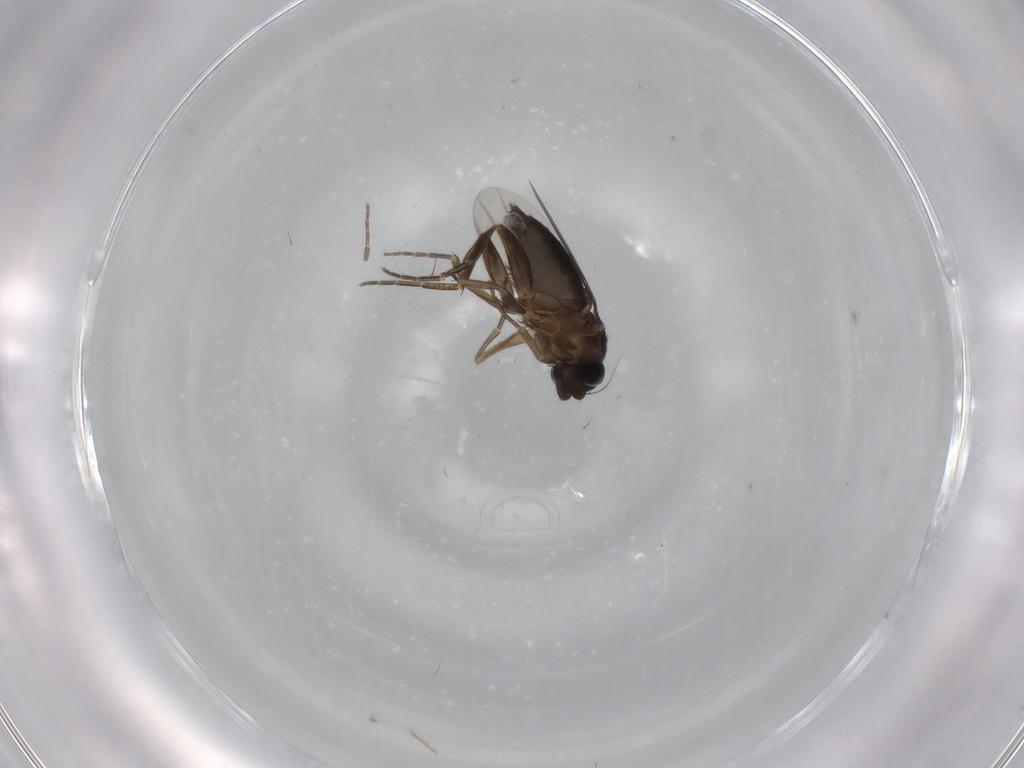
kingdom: Animalia
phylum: Arthropoda
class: Insecta
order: Diptera
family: Phoridae
